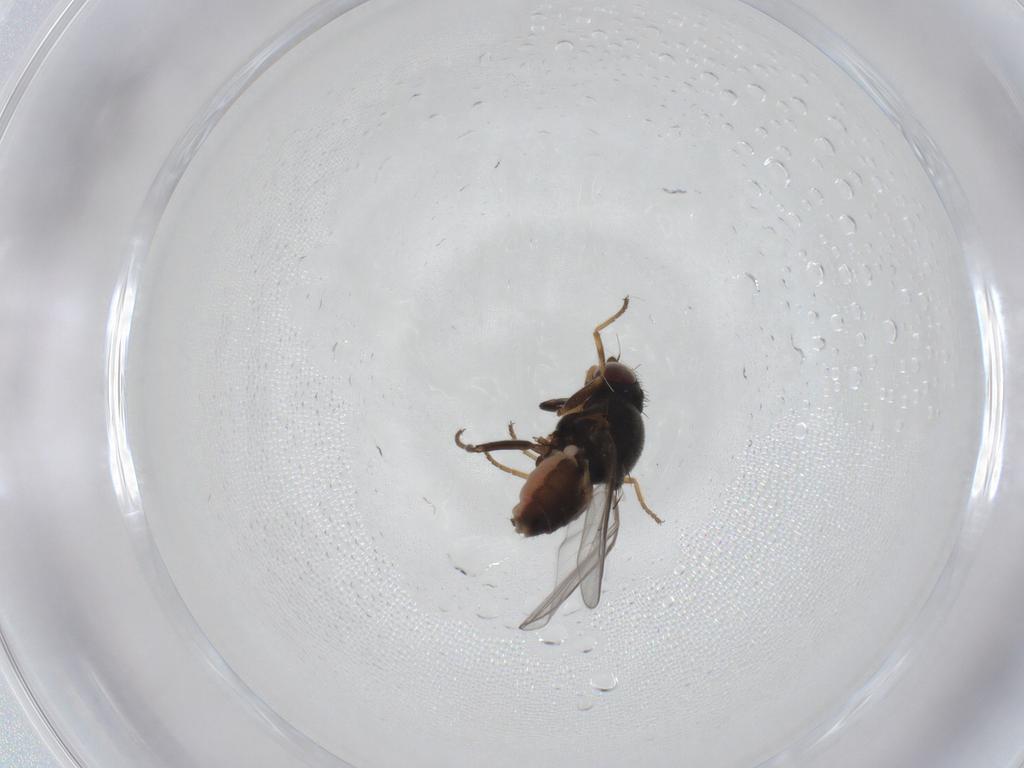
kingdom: Animalia
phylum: Arthropoda
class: Insecta
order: Diptera
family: Chloropidae
